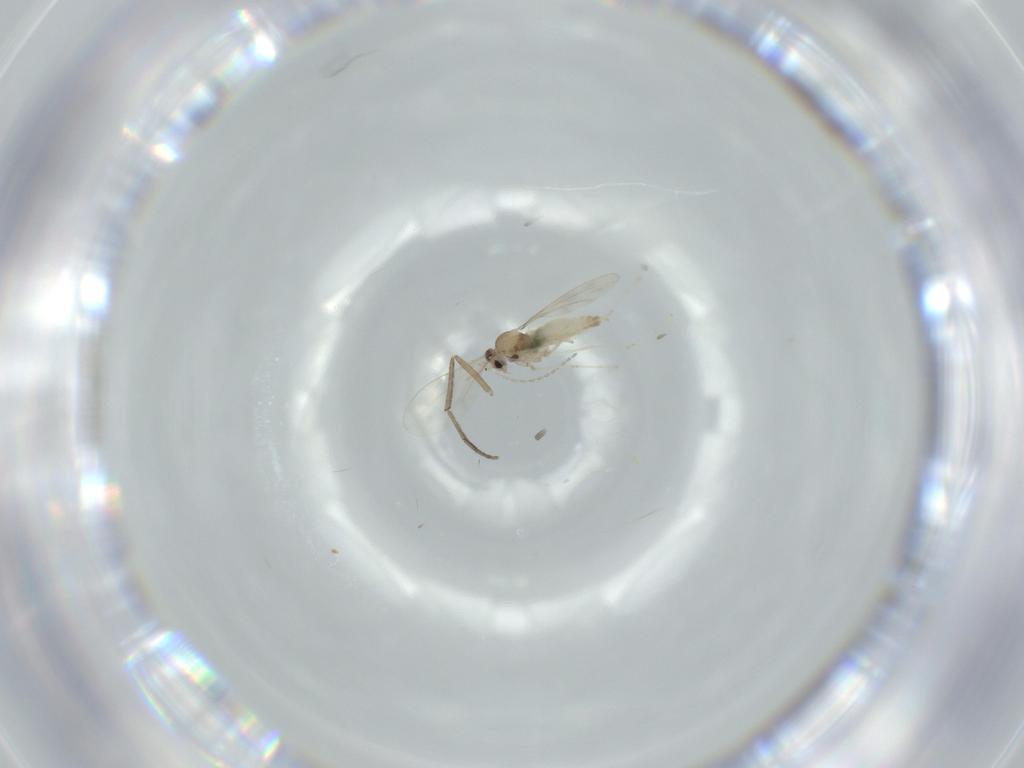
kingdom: Animalia
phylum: Arthropoda
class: Insecta
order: Diptera
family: Psychodidae
